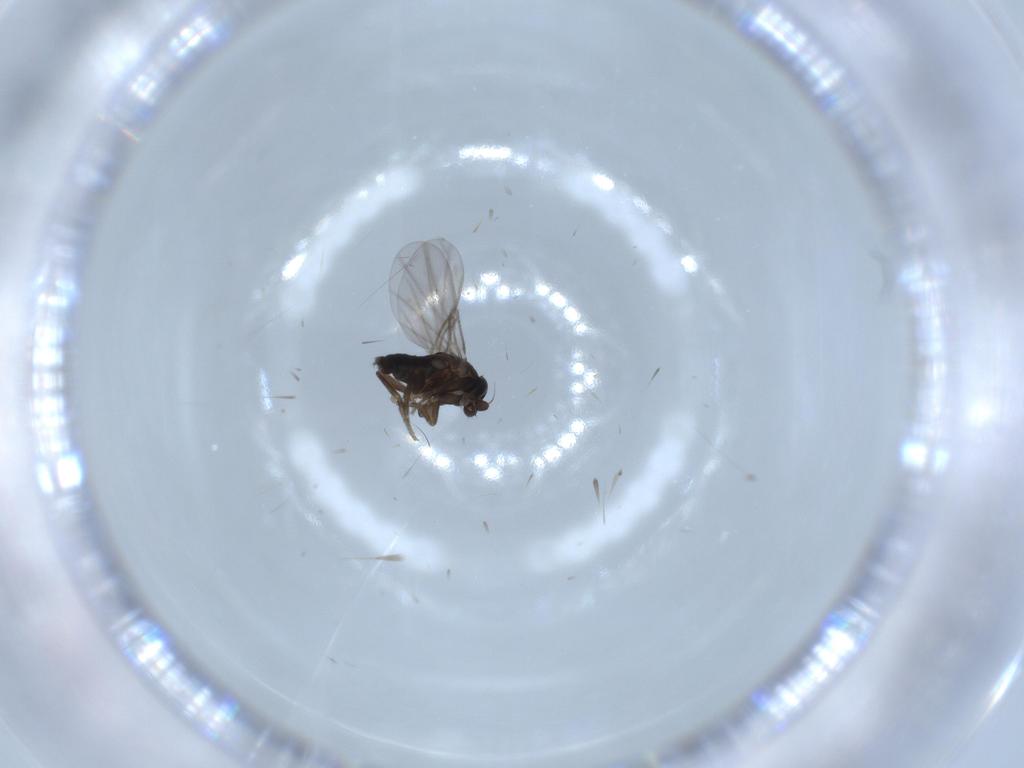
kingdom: Animalia
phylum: Arthropoda
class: Insecta
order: Diptera
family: Phoridae
